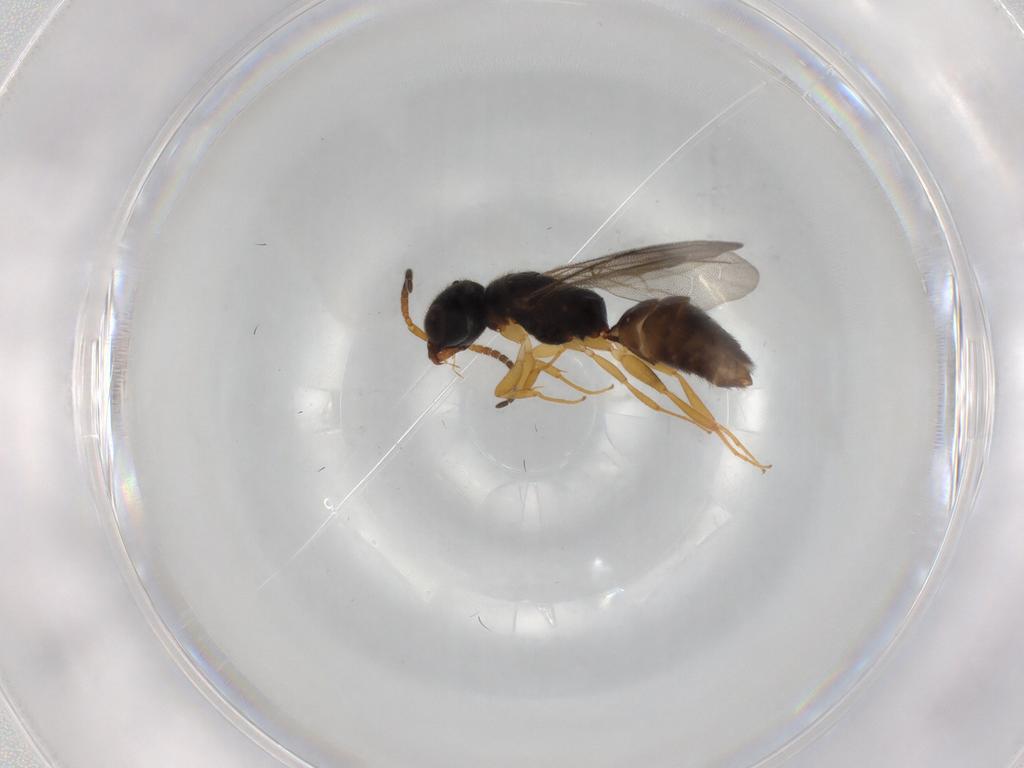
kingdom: Animalia
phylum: Arthropoda
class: Insecta
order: Hymenoptera
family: Bethylidae
